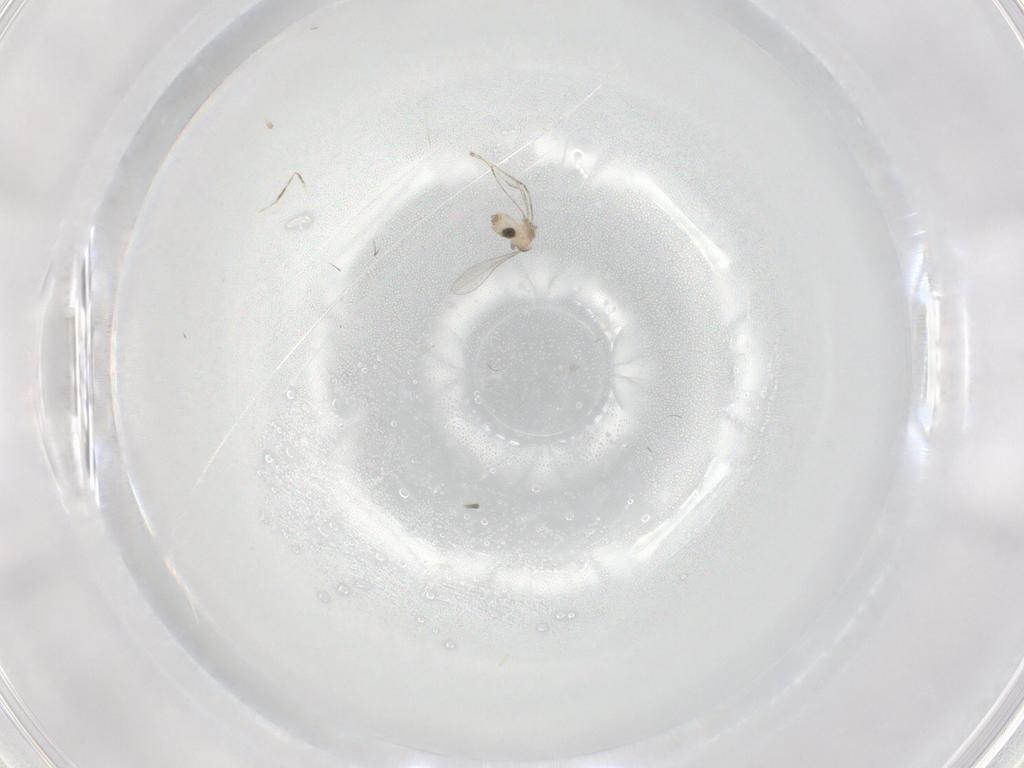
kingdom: Animalia
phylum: Arthropoda
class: Insecta
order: Diptera
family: Cecidomyiidae
